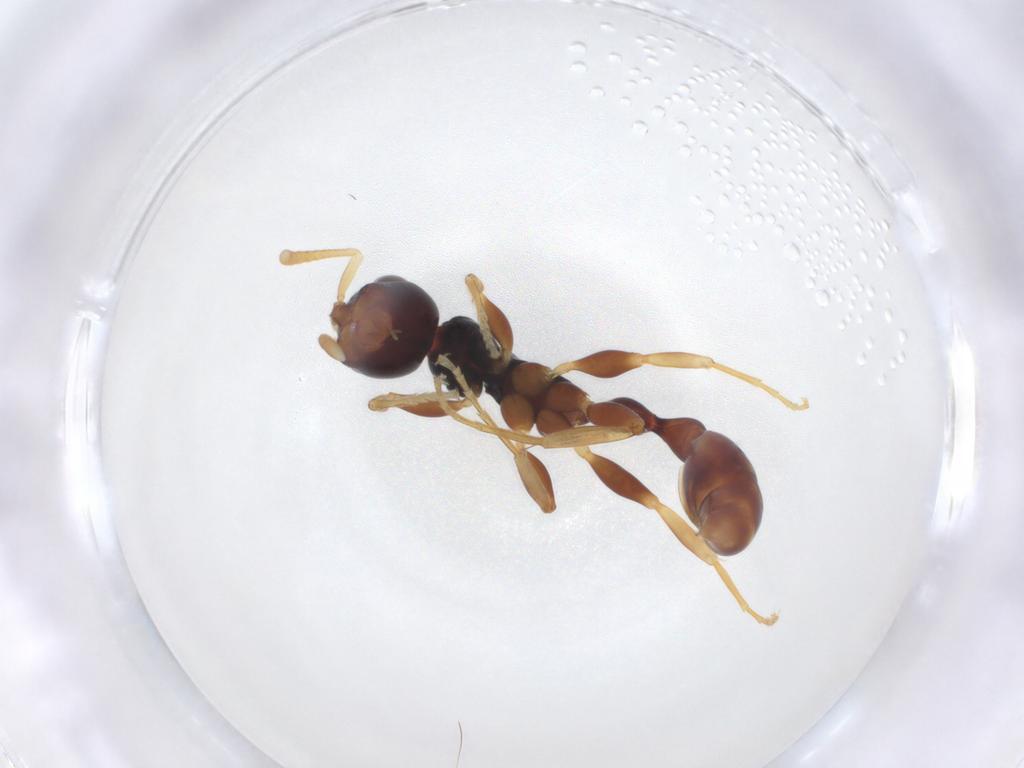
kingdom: Animalia
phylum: Arthropoda
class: Insecta
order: Hymenoptera
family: Formicidae
